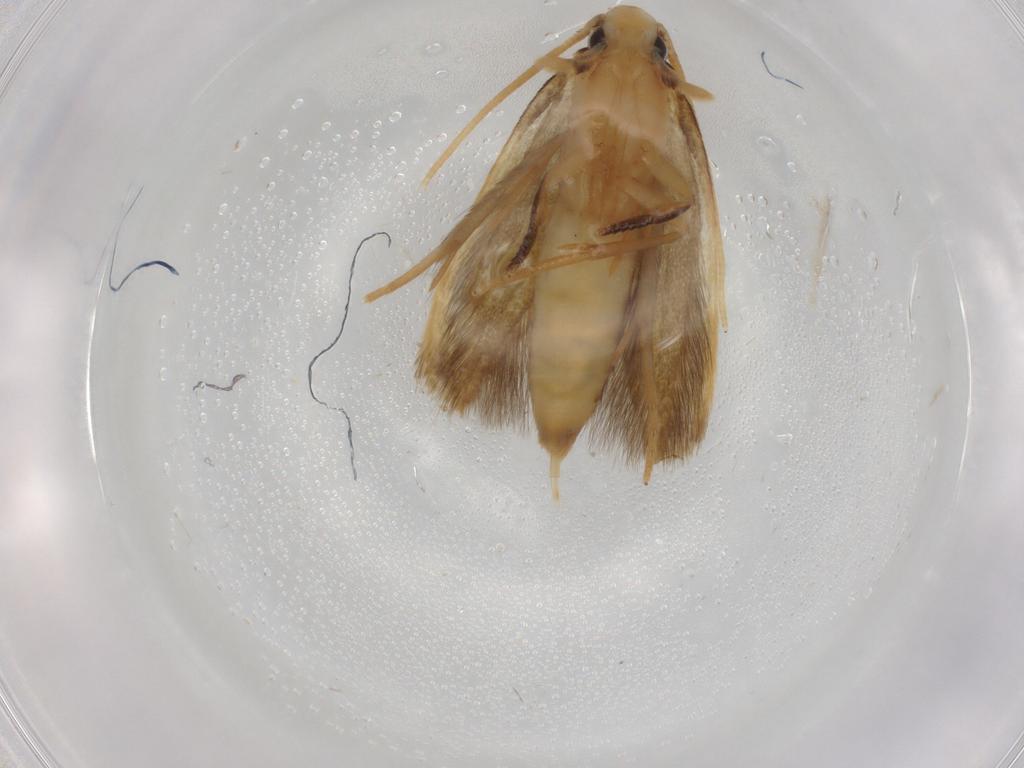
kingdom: Animalia
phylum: Arthropoda
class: Insecta
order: Lepidoptera
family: Tineidae
